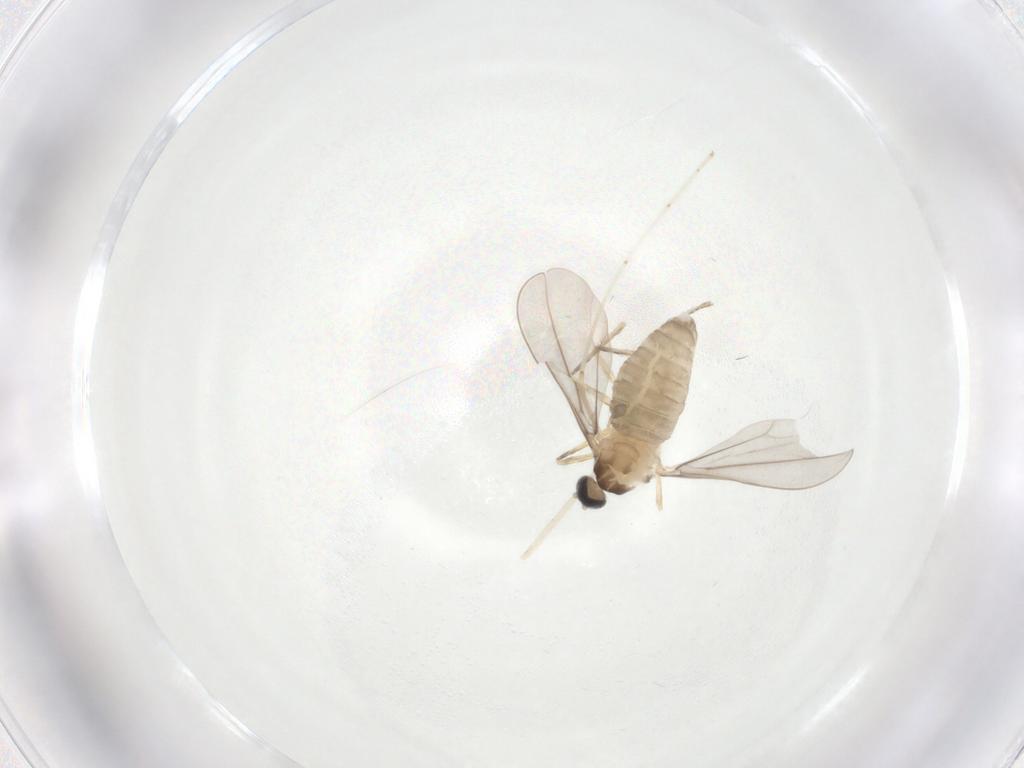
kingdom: Animalia
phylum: Arthropoda
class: Insecta
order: Diptera
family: Cecidomyiidae
